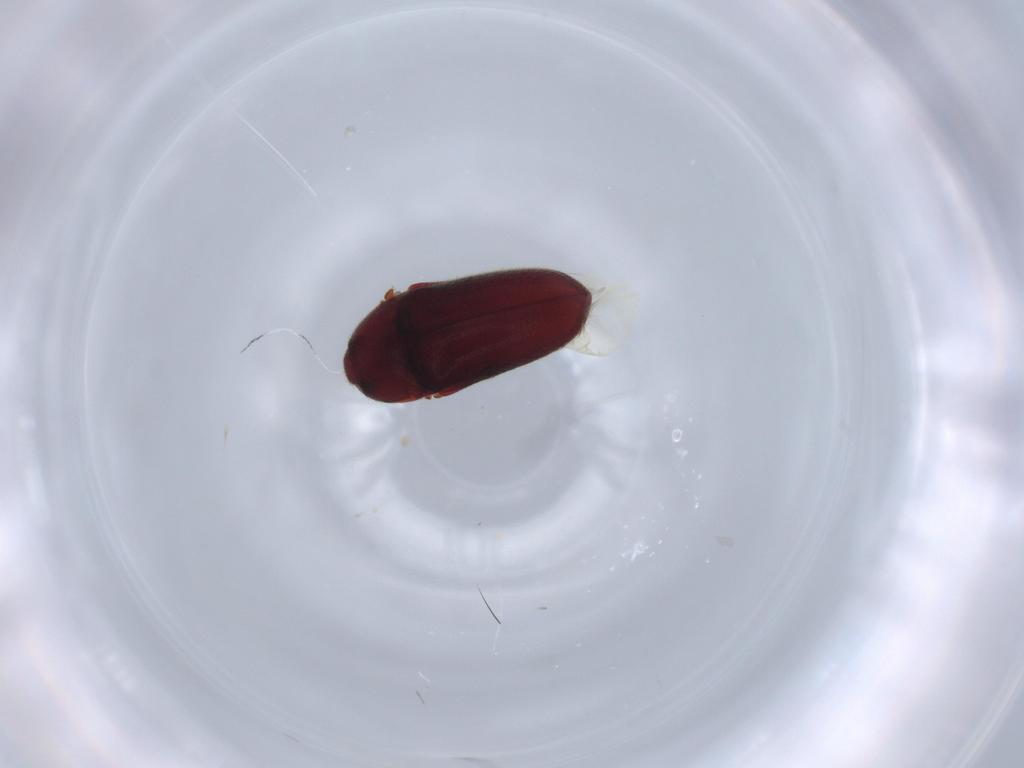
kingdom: Animalia
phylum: Arthropoda
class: Insecta
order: Coleoptera
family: Throscidae
